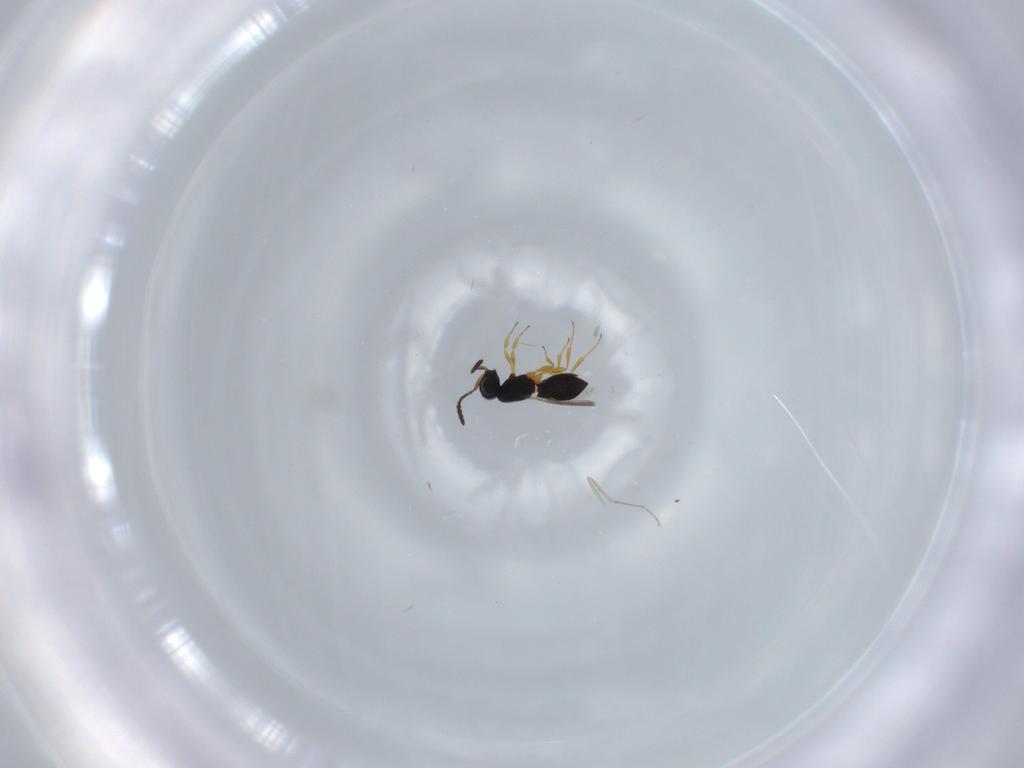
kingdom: Animalia
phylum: Arthropoda
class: Insecta
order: Hymenoptera
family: Scelionidae
